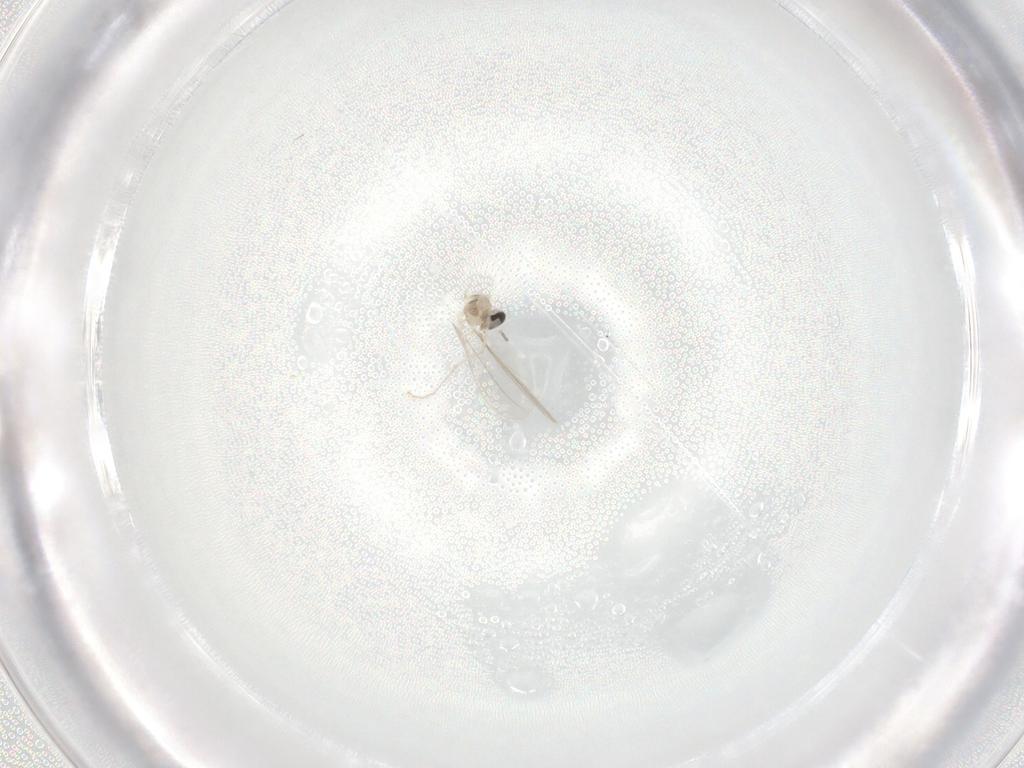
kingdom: Animalia
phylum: Arthropoda
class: Insecta
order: Diptera
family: Cecidomyiidae
